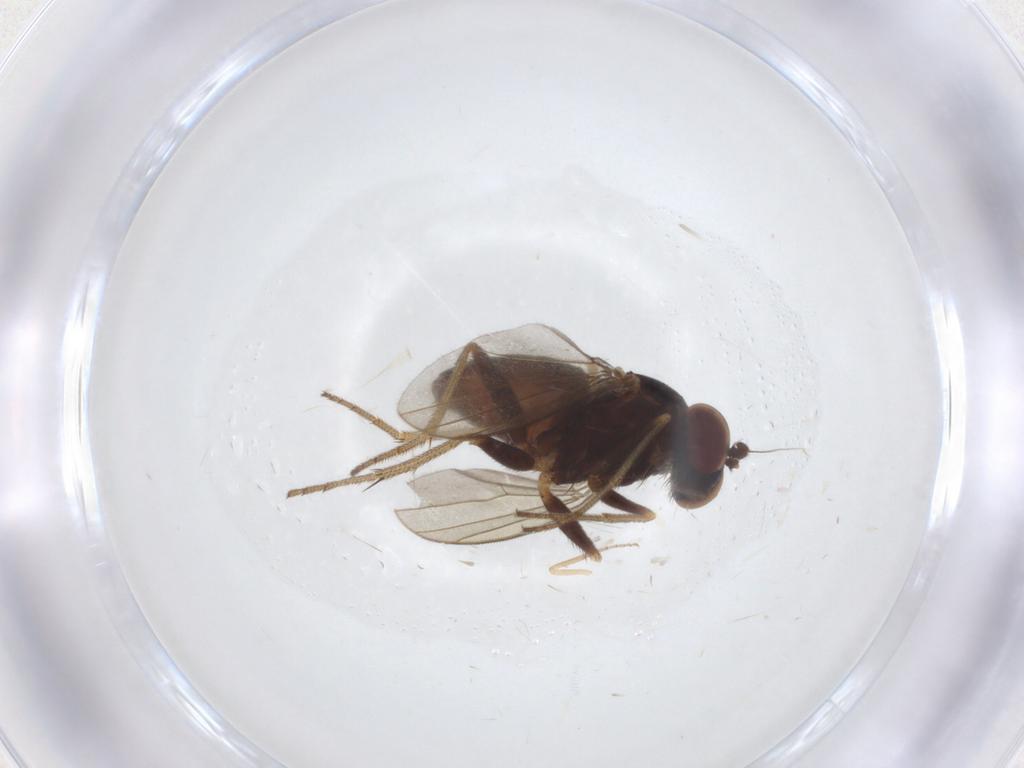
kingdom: Animalia
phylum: Arthropoda
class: Insecta
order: Diptera
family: Dolichopodidae
